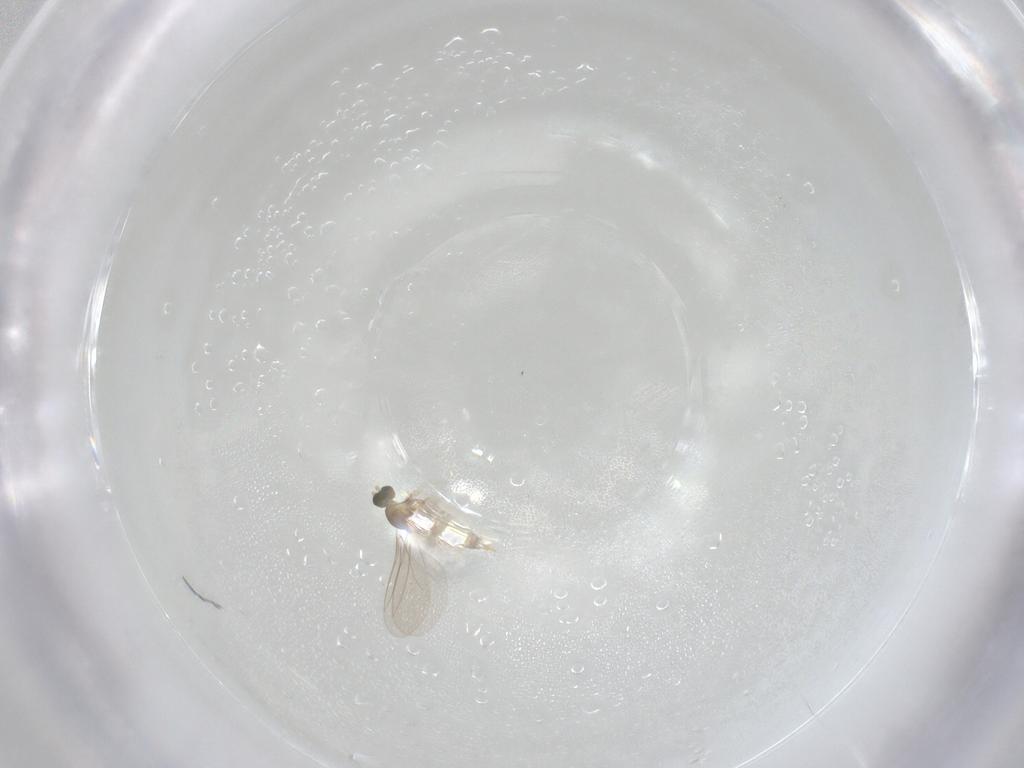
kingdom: Animalia
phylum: Arthropoda
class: Insecta
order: Diptera
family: Cecidomyiidae
